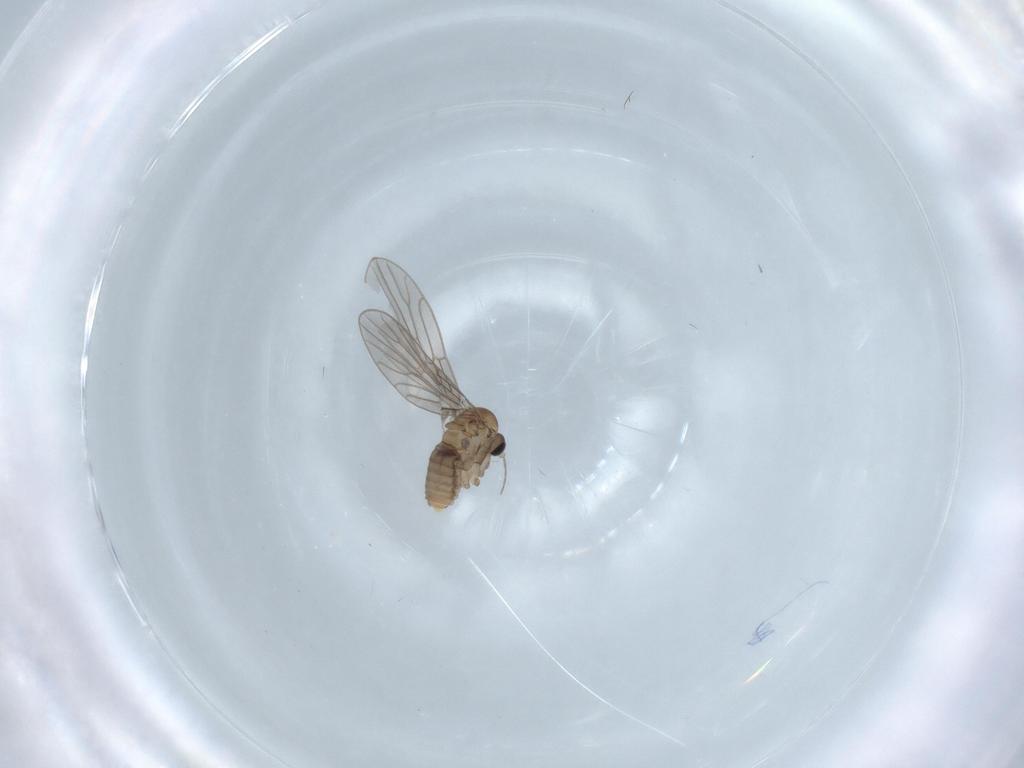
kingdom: Animalia
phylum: Arthropoda
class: Insecta
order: Diptera
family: Psychodidae
